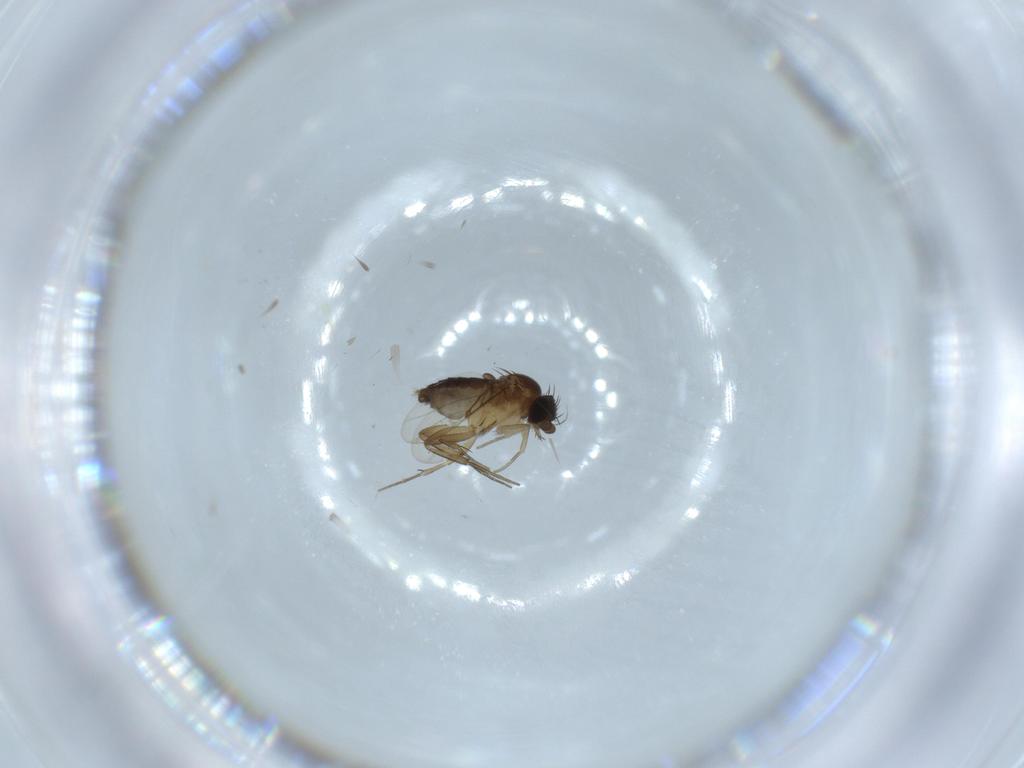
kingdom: Animalia
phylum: Arthropoda
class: Insecta
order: Diptera
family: Phoridae
